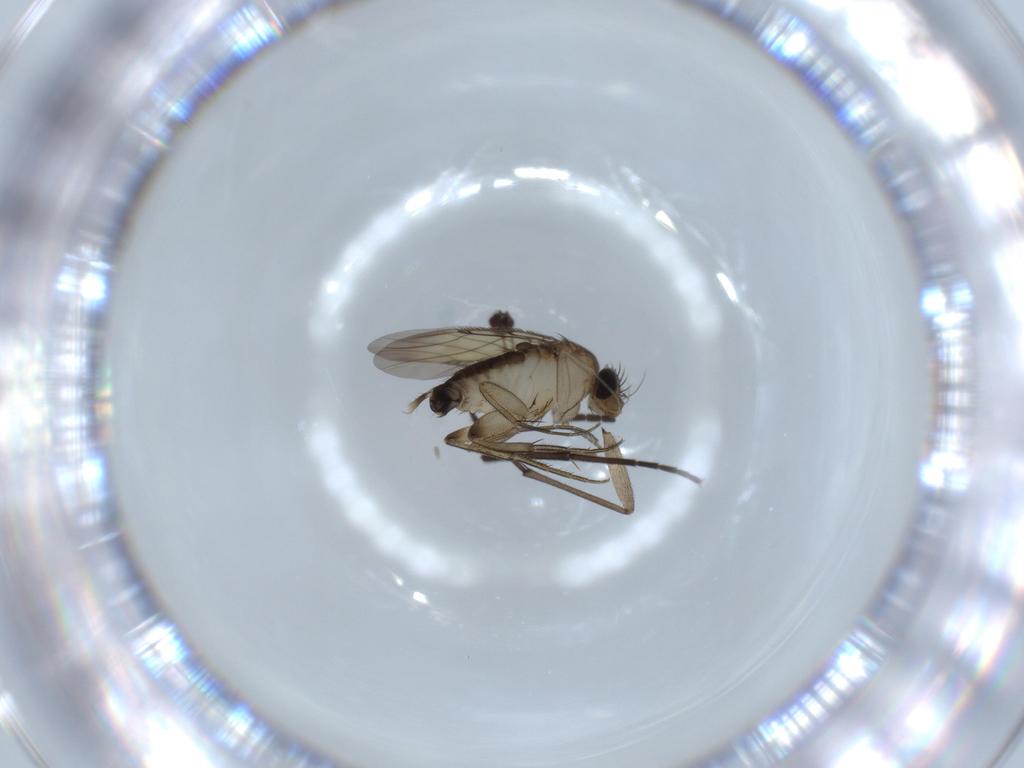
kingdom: Animalia
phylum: Arthropoda
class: Insecta
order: Diptera
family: Phoridae
